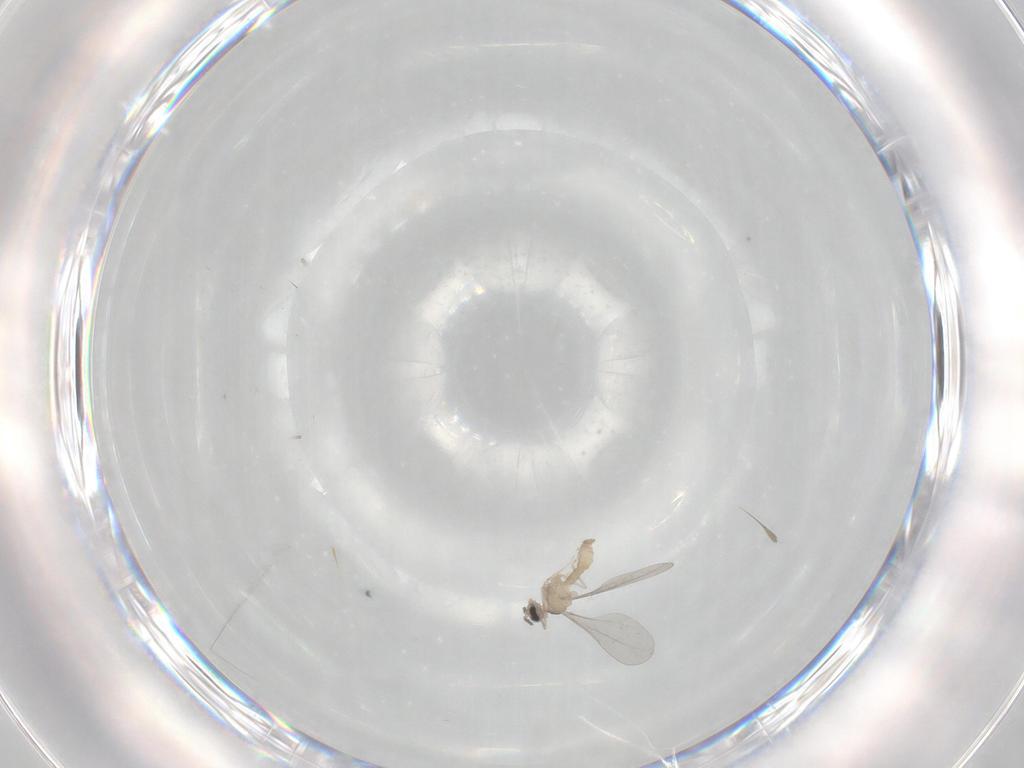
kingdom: Animalia
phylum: Arthropoda
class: Insecta
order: Diptera
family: Cecidomyiidae
